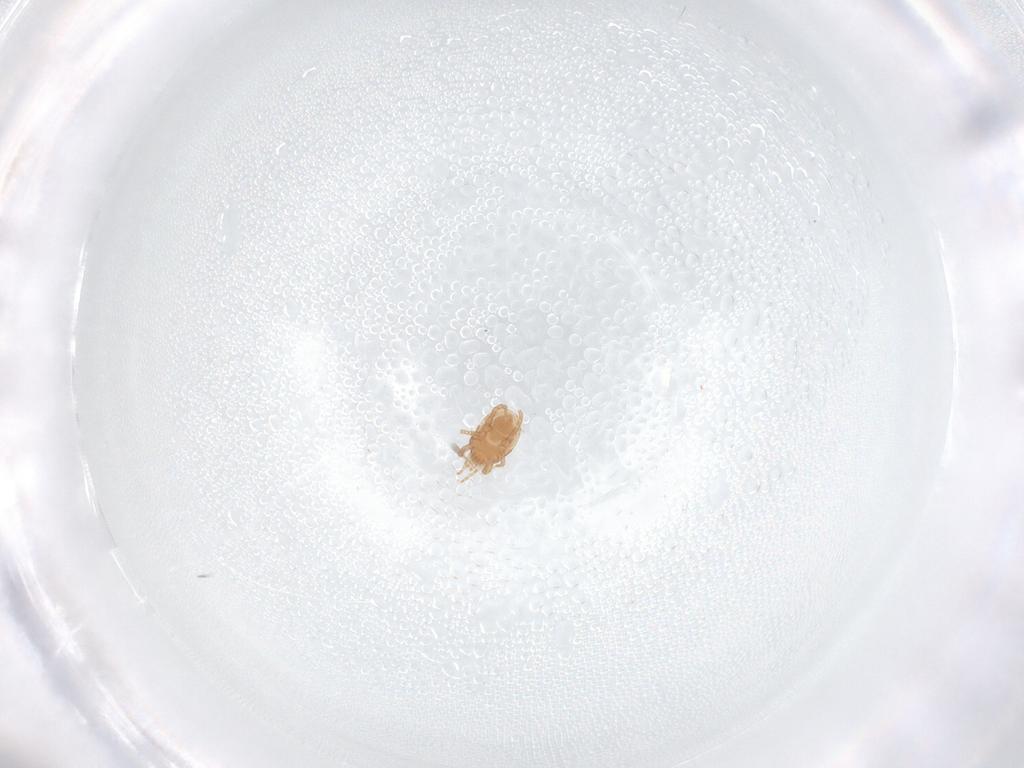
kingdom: Animalia
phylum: Arthropoda
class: Arachnida
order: Mesostigmata
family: Macrochelidae
